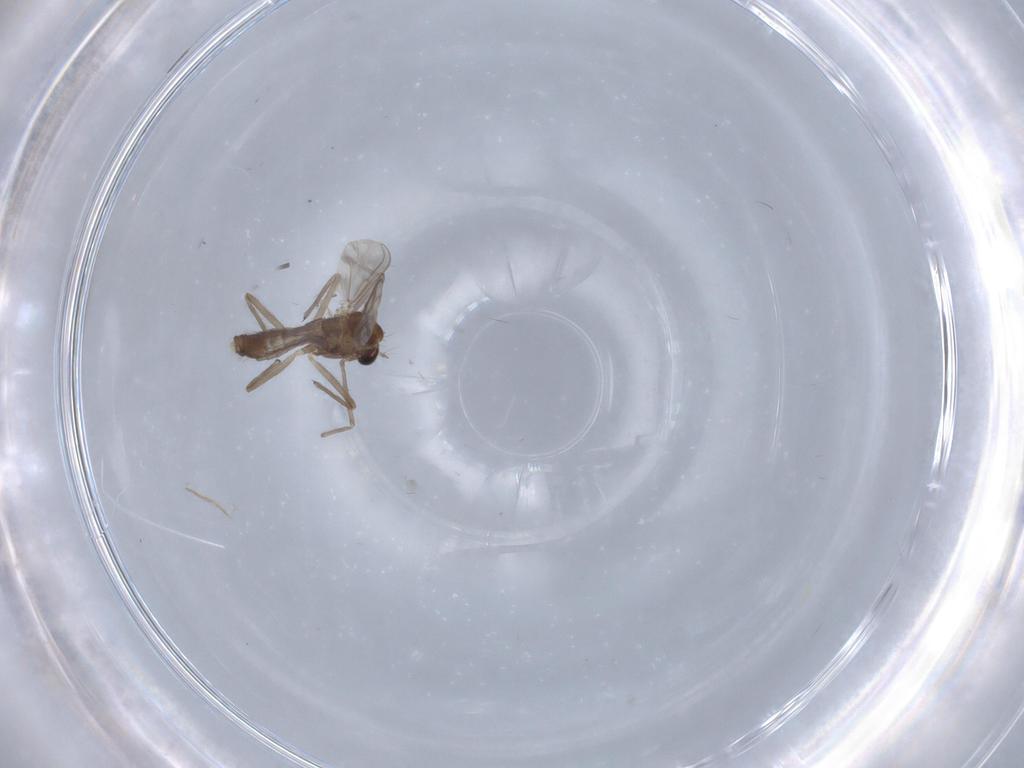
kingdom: Animalia
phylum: Arthropoda
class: Insecta
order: Diptera
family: Chironomidae
